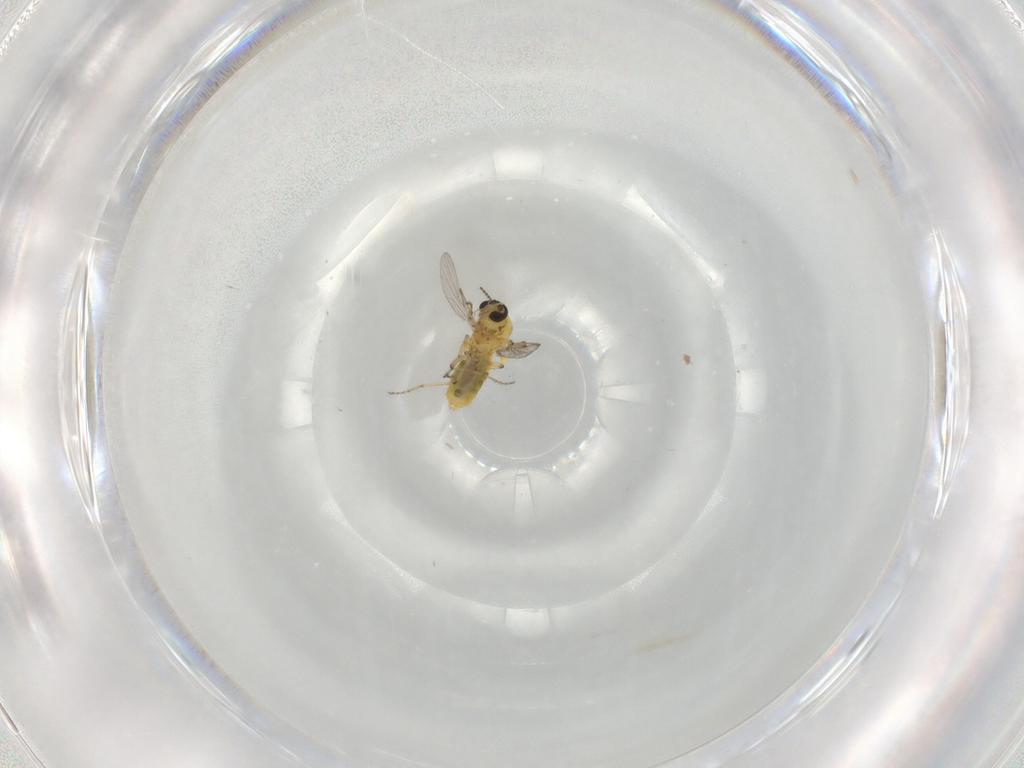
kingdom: Animalia
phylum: Arthropoda
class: Insecta
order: Diptera
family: Ceratopogonidae
